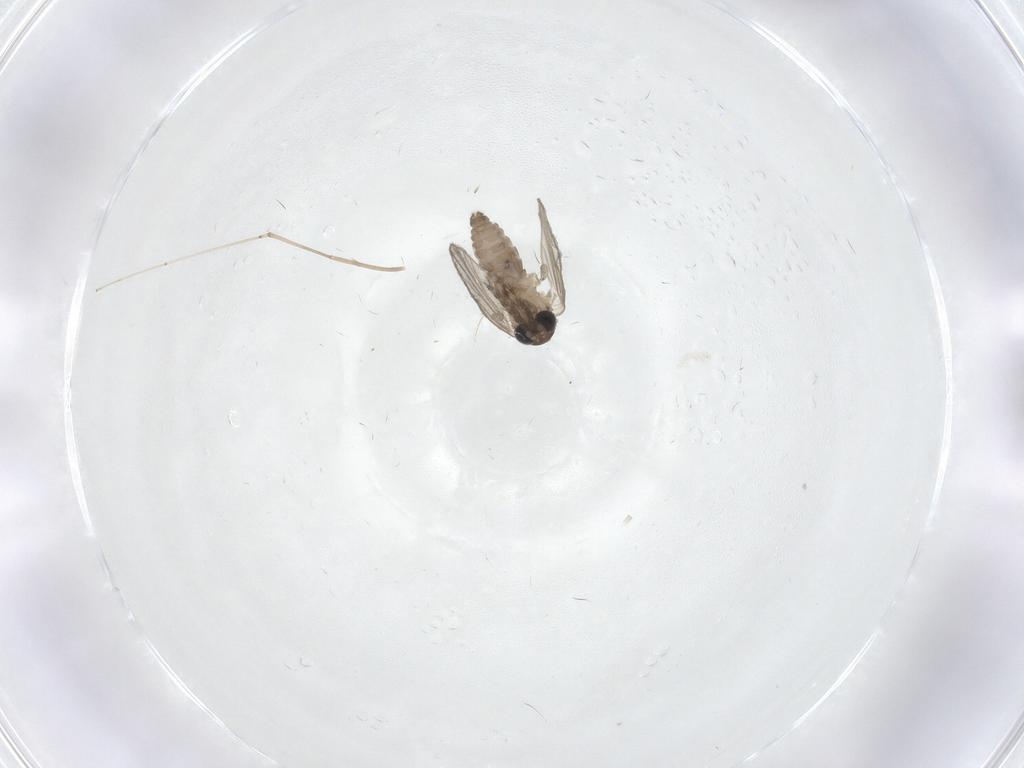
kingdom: Animalia
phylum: Arthropoda
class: Insecta
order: Diptera
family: Cecidomyiidae
